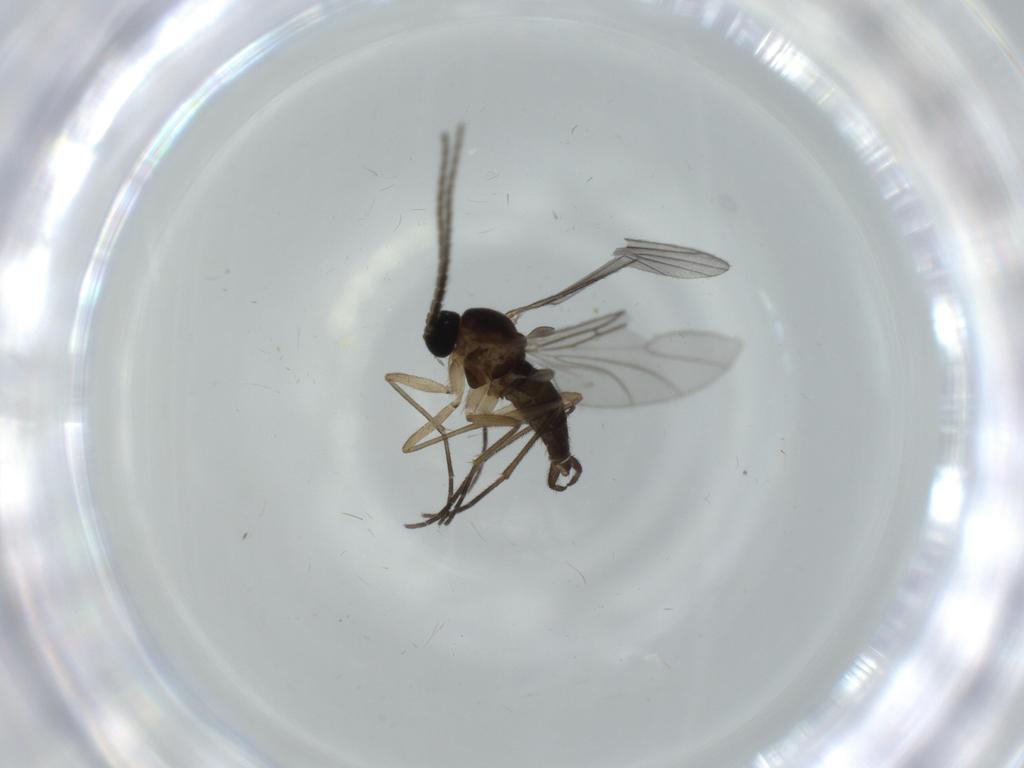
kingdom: Animalia
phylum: Arthropoda
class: Insecta
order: Diptera
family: Sciaridae
